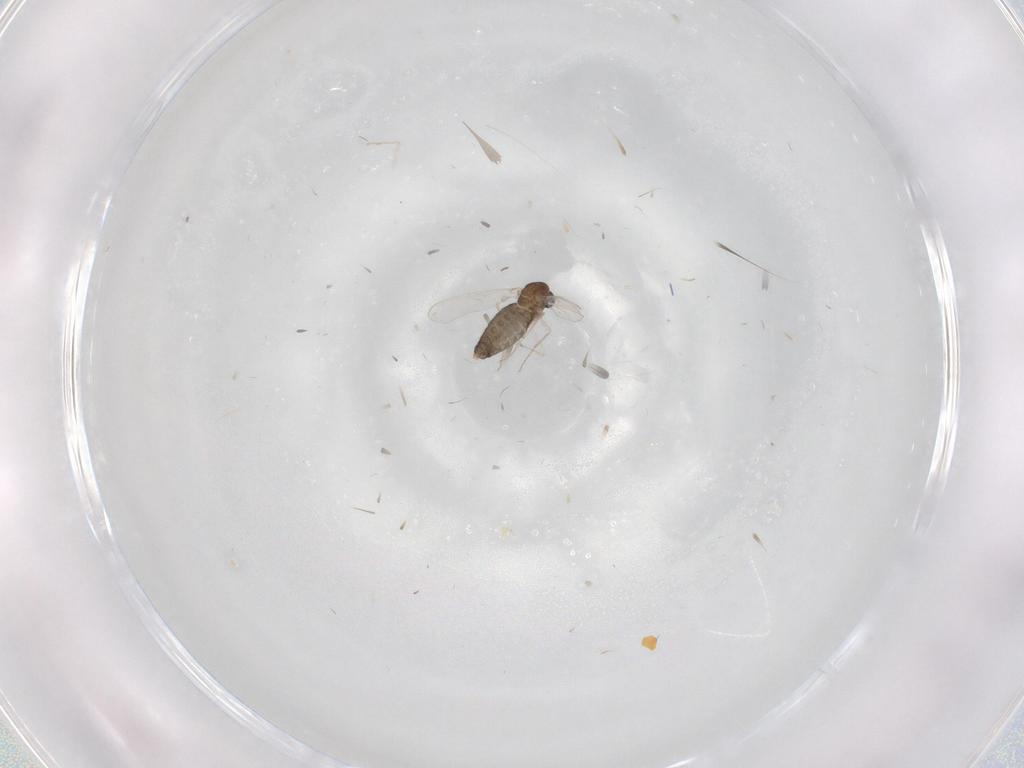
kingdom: Animalia
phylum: Arthropoda
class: Insecta
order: Diptera
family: Chironomidae
